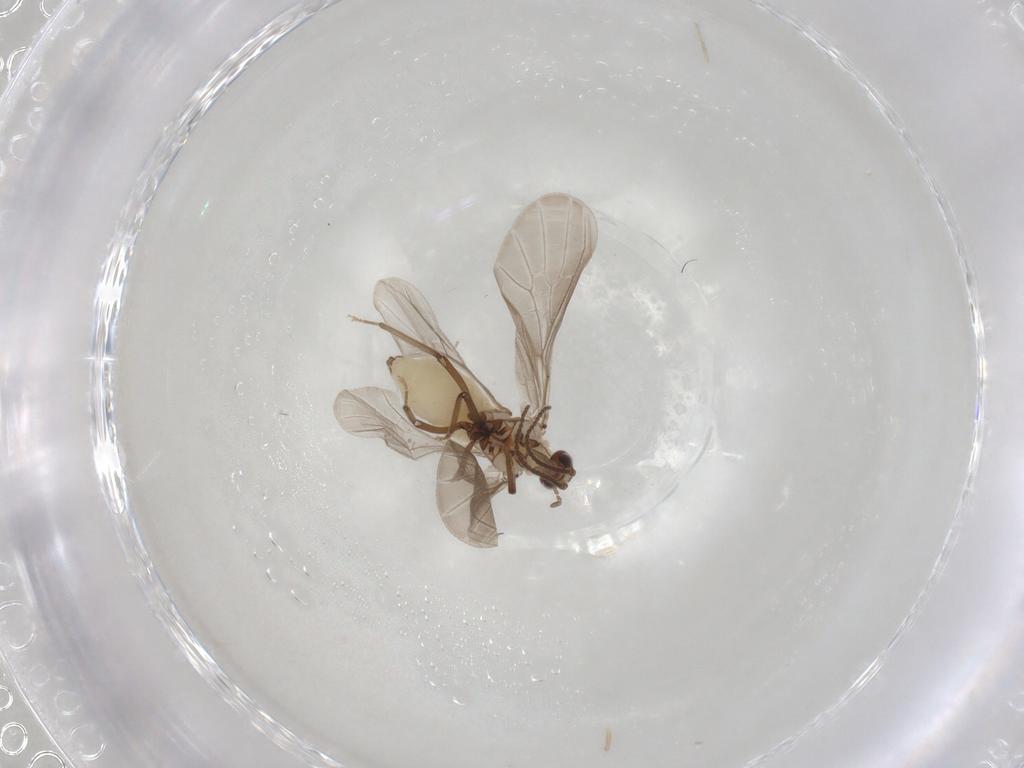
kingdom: Animalia
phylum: Arthropoda
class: Insecta
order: Neuroptera
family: Coniopterygidae
